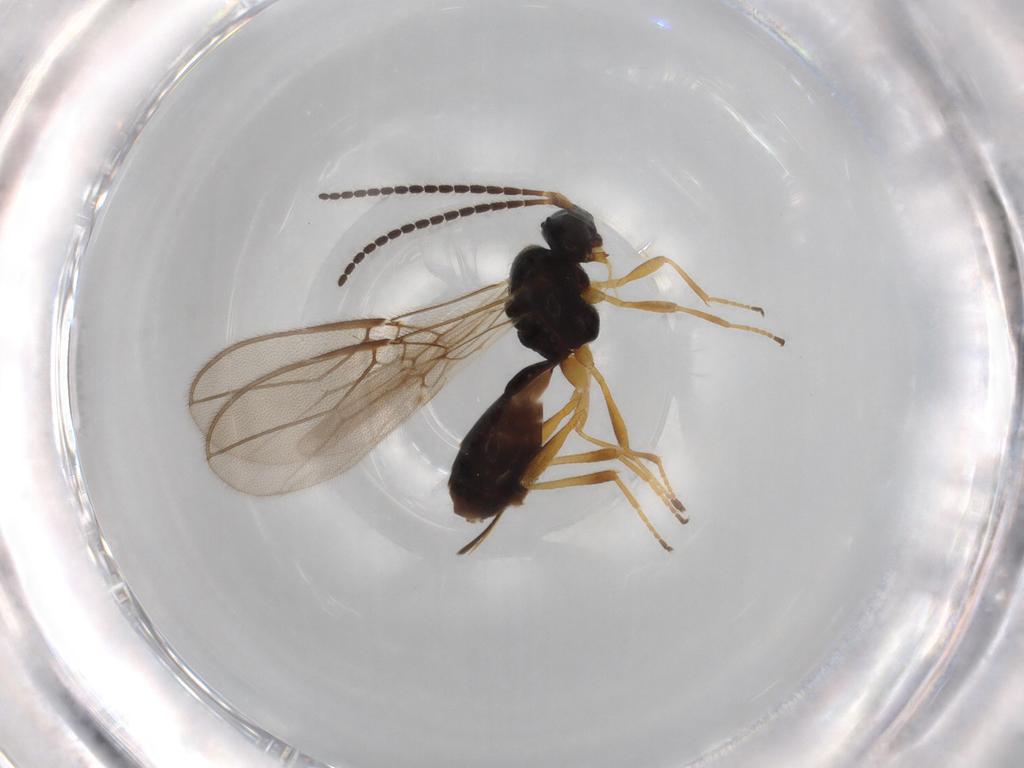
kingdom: Animalia
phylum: Arthropoda
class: Insecta
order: Hymenoptera
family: Braconidae
